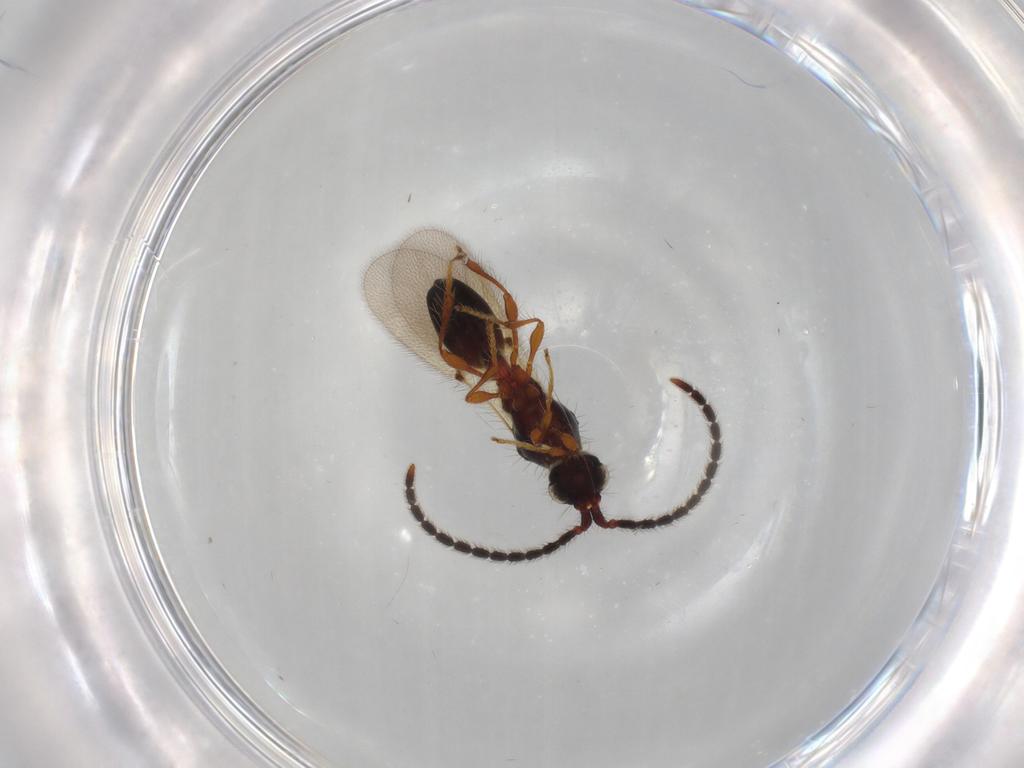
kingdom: Animalia
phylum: Arthropoda
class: Insecta
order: Hymenoptera
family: Diapriidae
